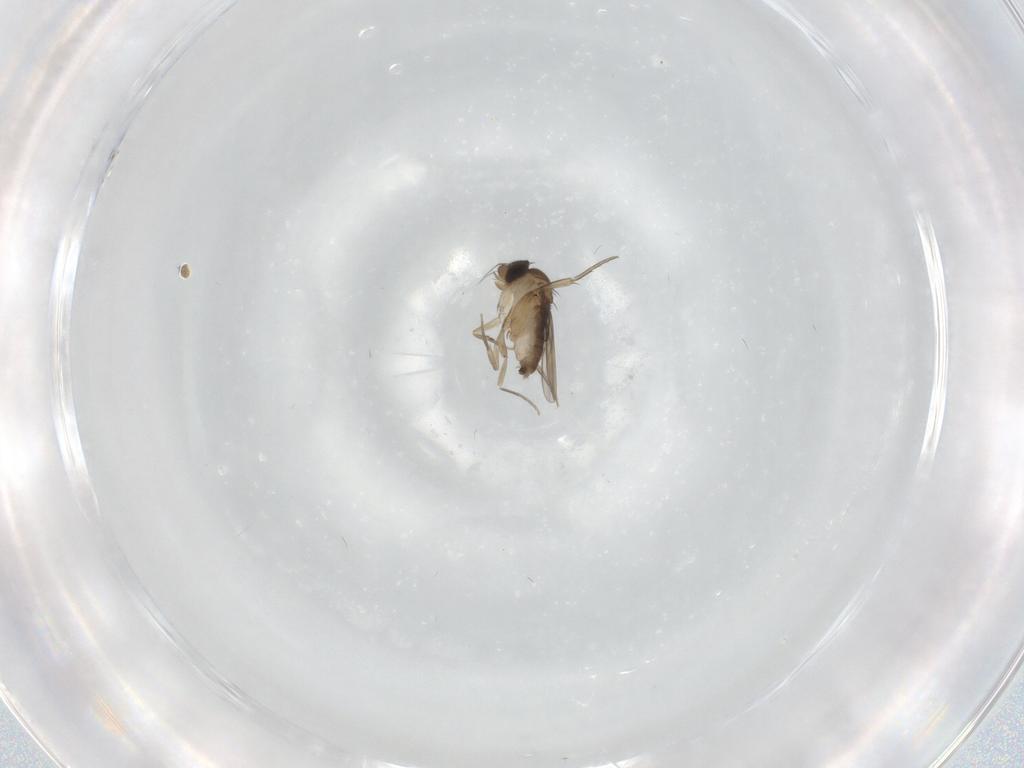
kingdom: Animalia
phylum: Arthropoda
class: Insecta
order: Diptera
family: Phoridae
